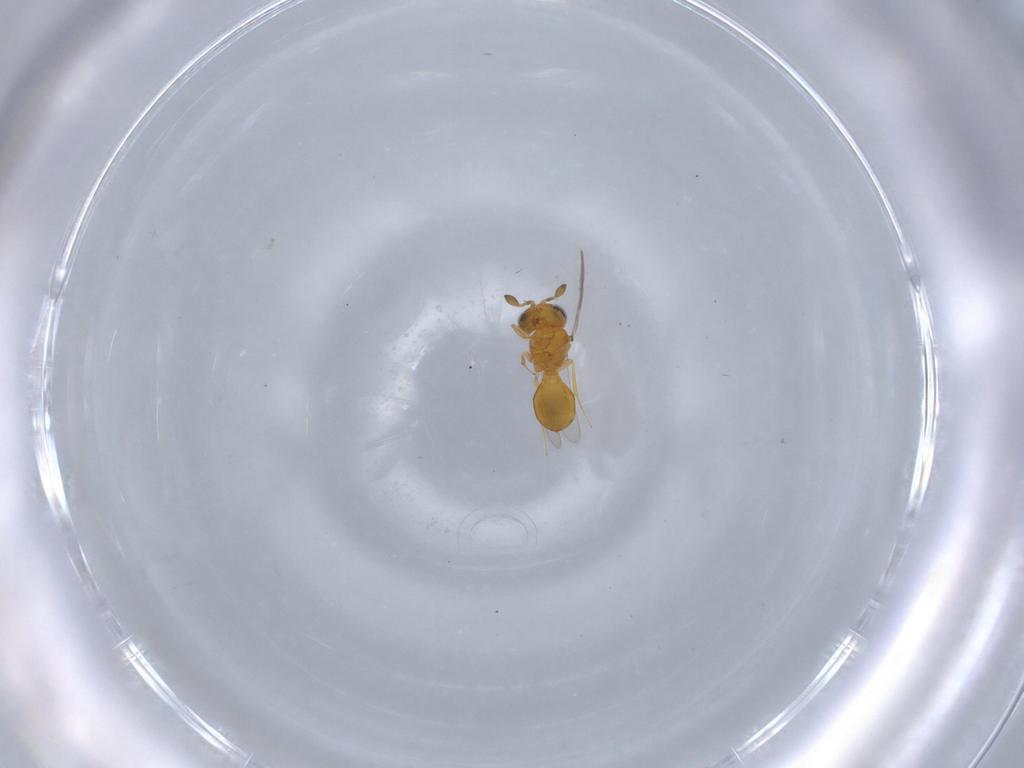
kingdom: Animalia
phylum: Arthropoda
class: Insecta
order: Hymenoptera
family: Scelionidae
